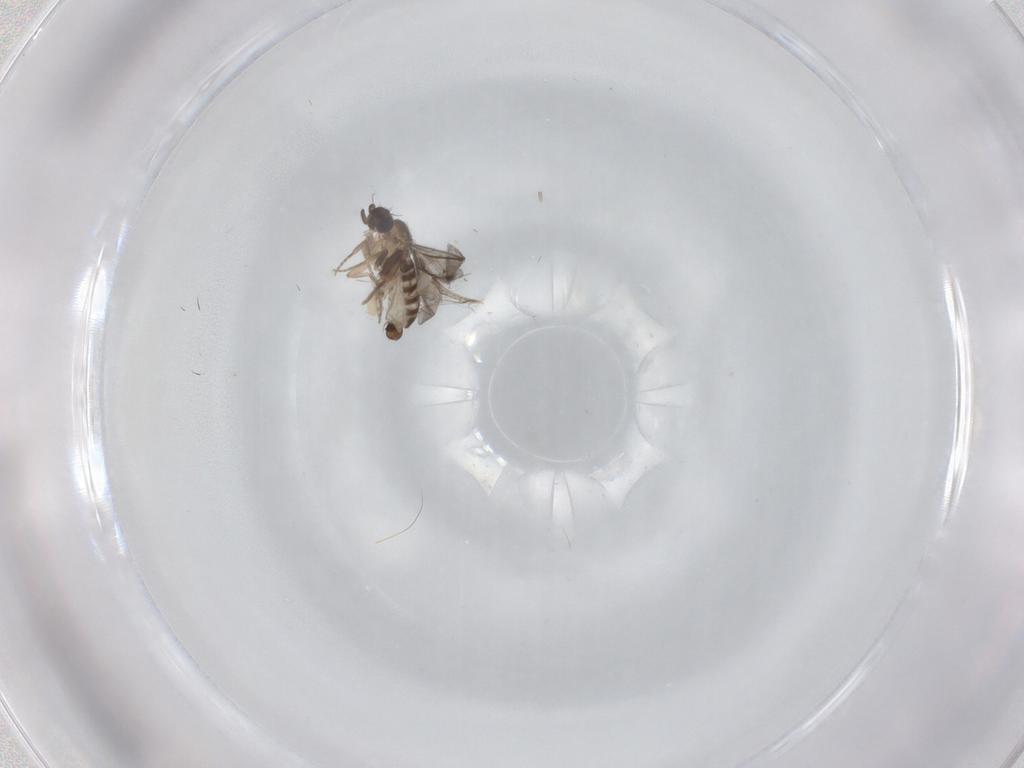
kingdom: Animalia
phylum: Arthropoda
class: Insecta
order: Diptera
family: Cecidomyiidae
